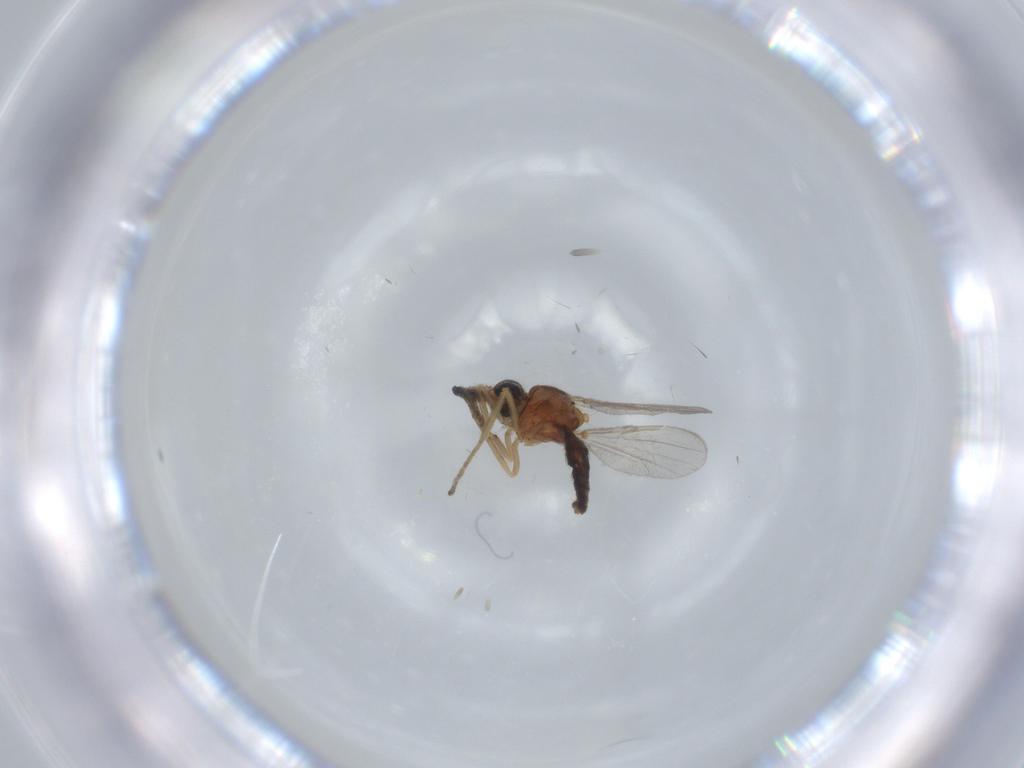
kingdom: Animalia
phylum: Arthropoda
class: Insecta
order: Diptera
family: Ceratopogonidae
